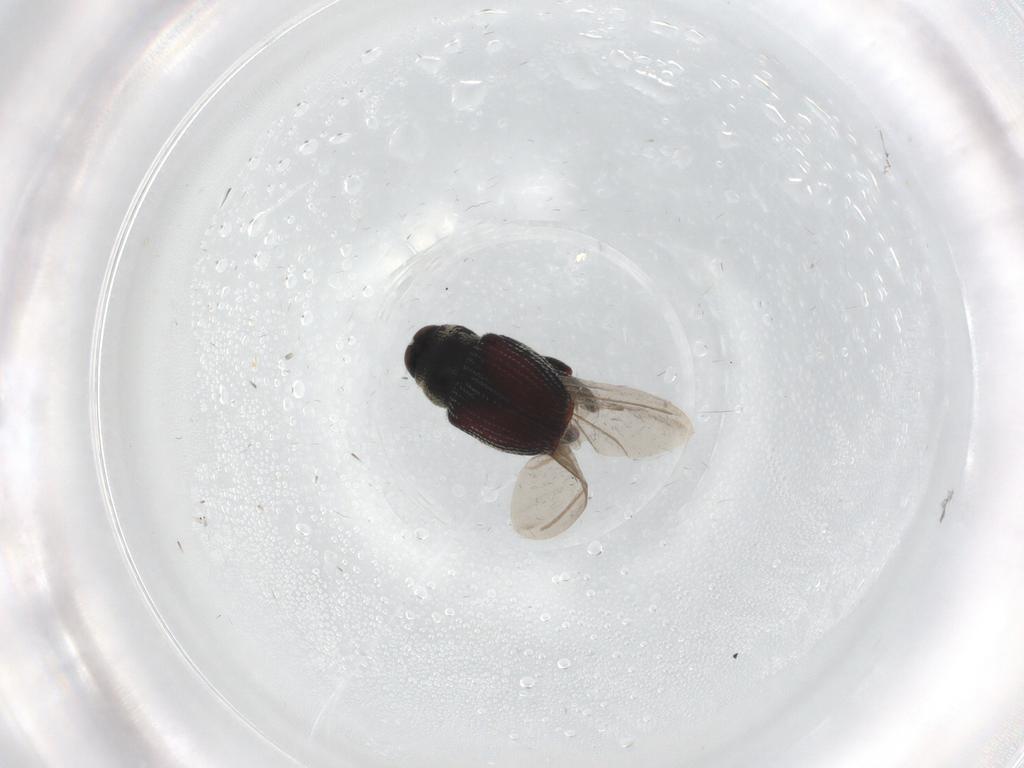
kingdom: Animalia
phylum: Arthropoda
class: Insecta
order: Coleoptera
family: Curculionidae
